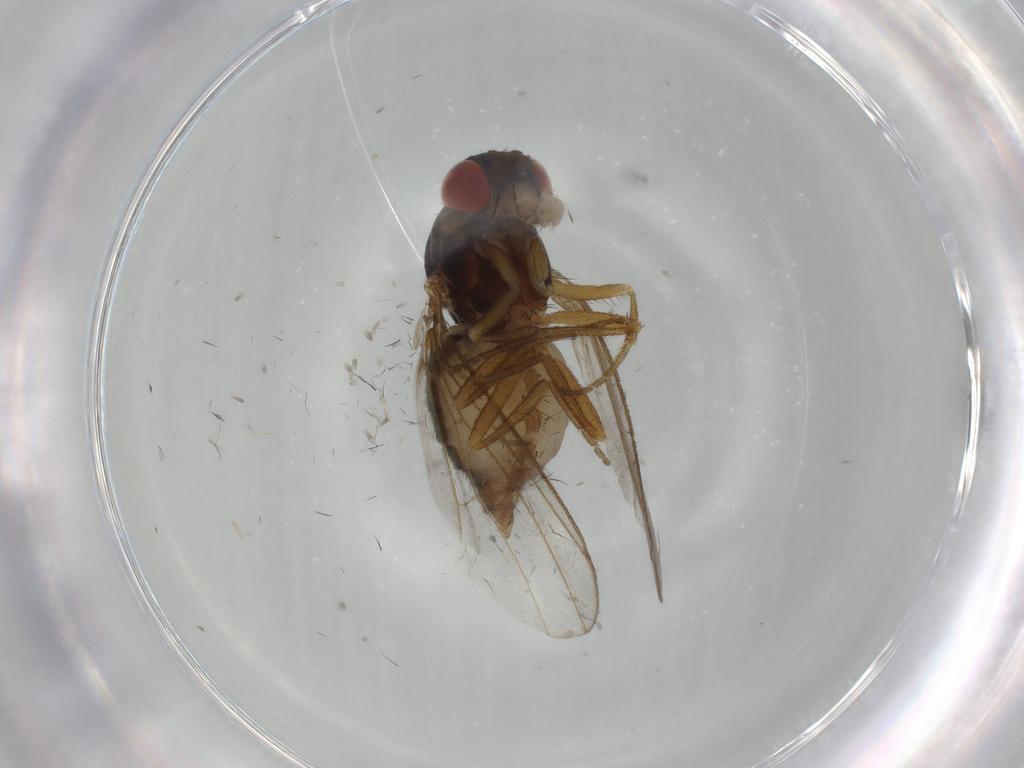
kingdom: Animalia
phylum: Arthropoda
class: Insecta
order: Diptera
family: Drosophilidae
